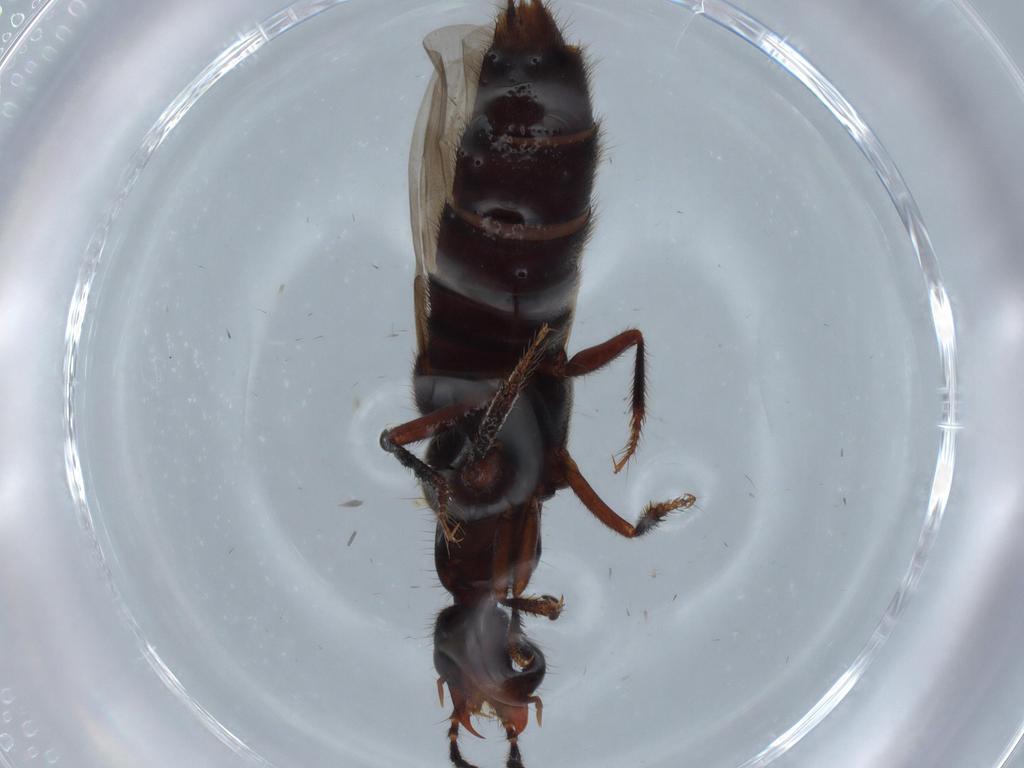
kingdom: Animalia
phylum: Arthropoda
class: Insecta
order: Coleoptera
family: Staphylinidae
